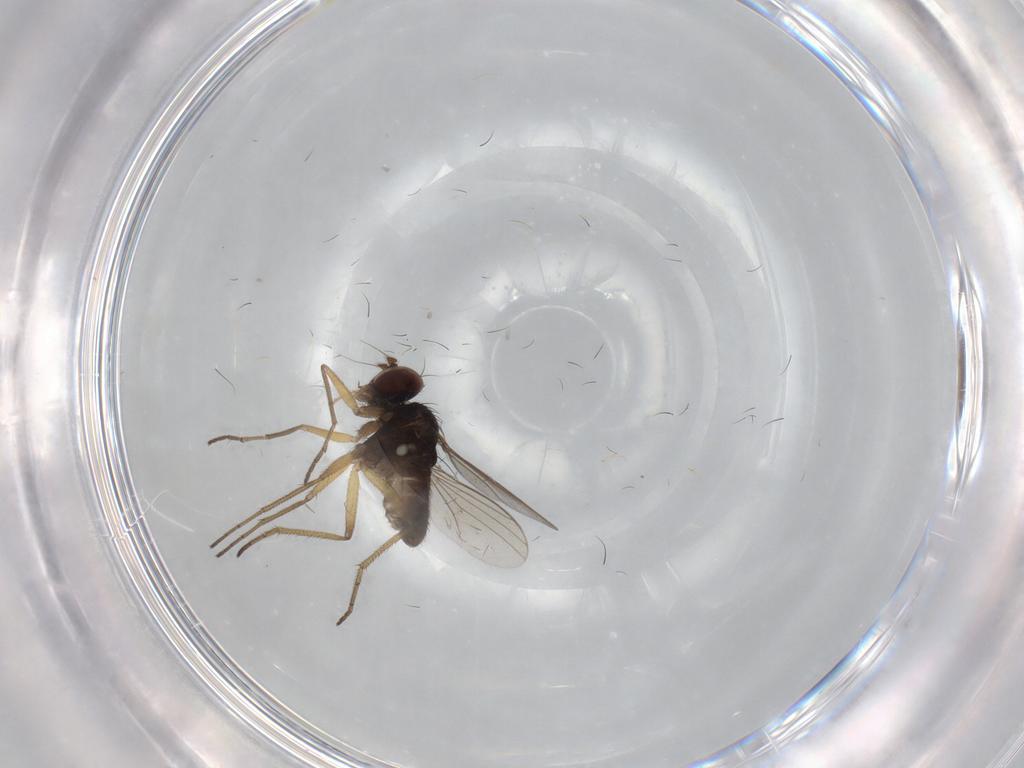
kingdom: Animalia
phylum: Arthropoda
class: Insecta
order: Diptera
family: Dolichopodidae
